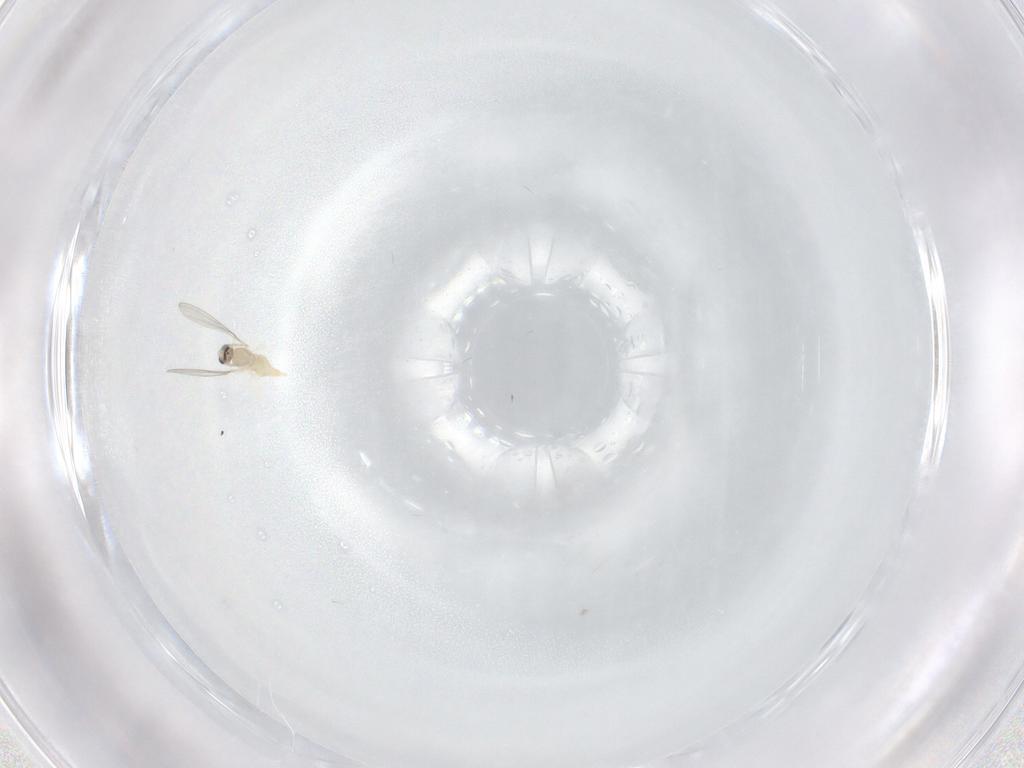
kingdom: Animalia
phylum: Arthropoda
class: Insecta
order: Diptera
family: Cecidomyiidae
